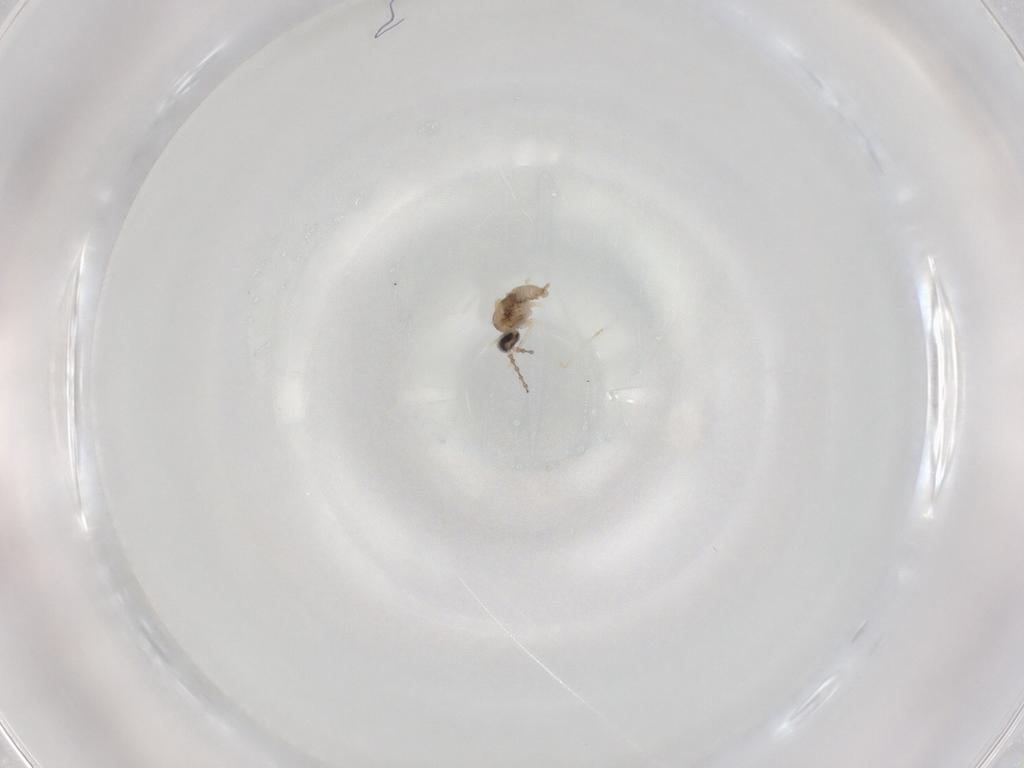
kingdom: Animalia
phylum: Arthropoda
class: Insecta
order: Diptera
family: Cecidomyiidae
